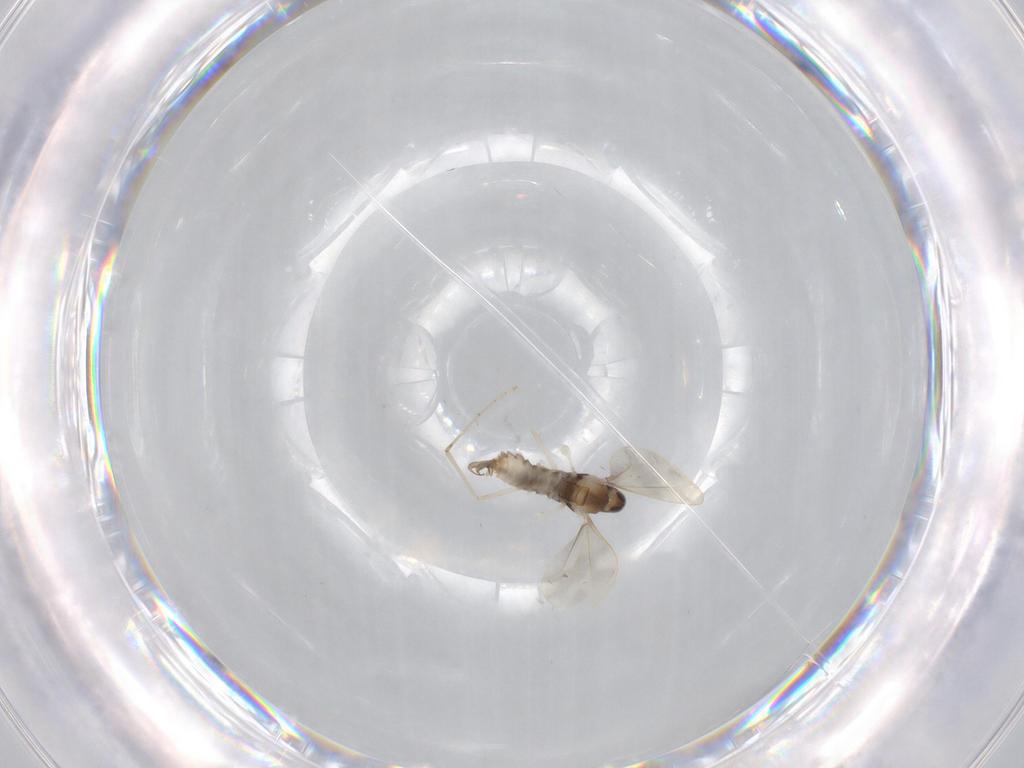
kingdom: Animalia
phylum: Arthropoda
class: Insecta
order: Diptera
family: Cecidomyiidae
